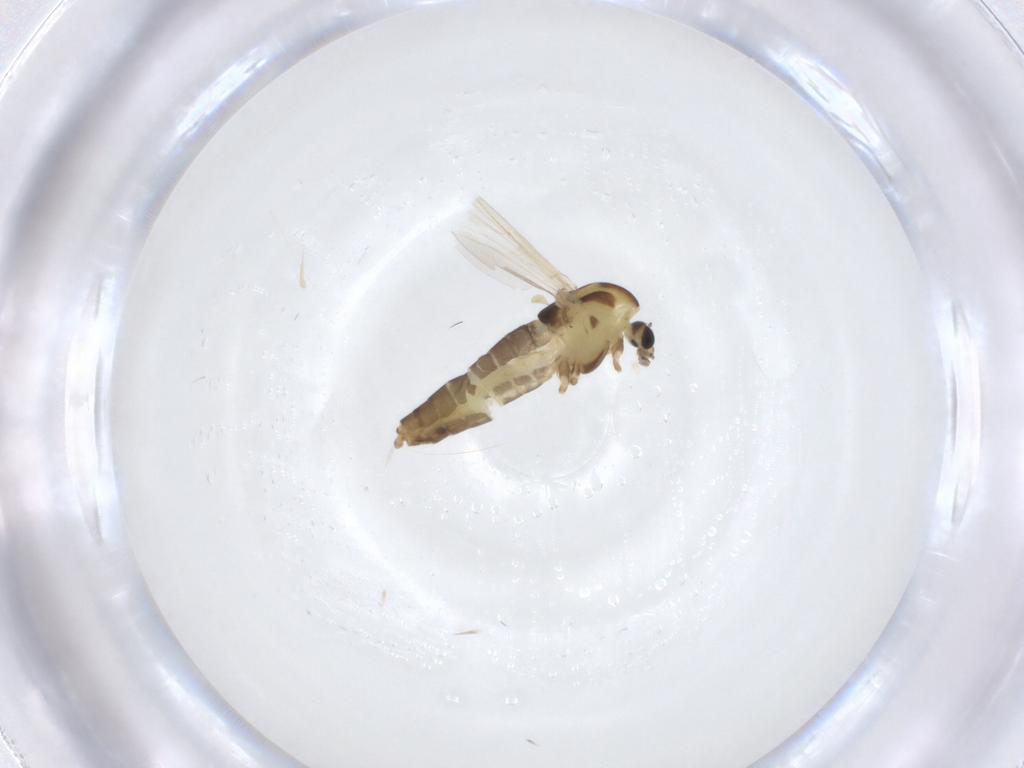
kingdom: Animalia
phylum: Arthropoda
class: Insecta
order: Diptera
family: Chironomidae
